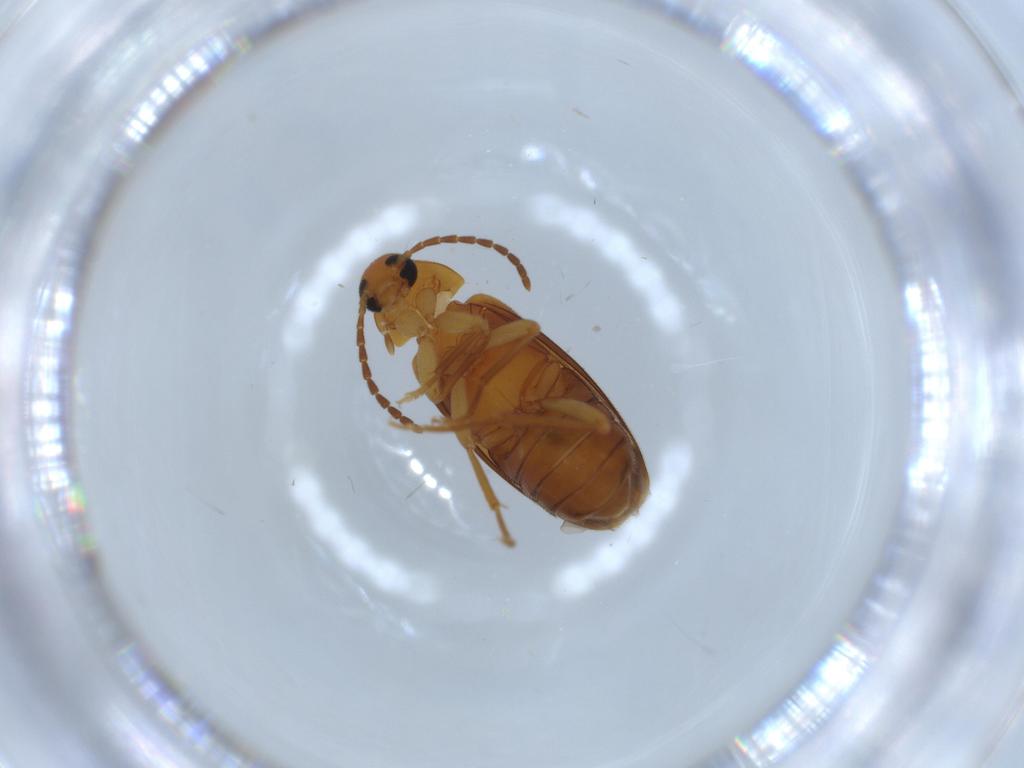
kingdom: Animalia
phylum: Arthropoda
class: Insecta
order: Coleoptera
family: Scraptiidae
